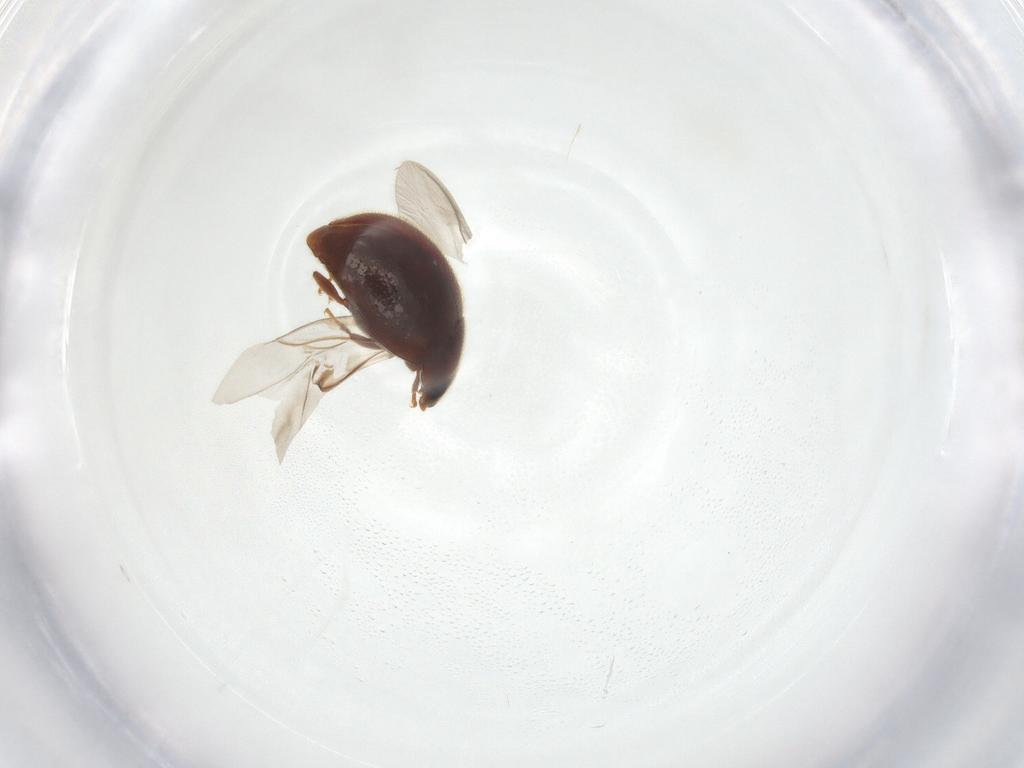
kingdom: Animalia
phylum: Arthropoda
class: Insecta
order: Coleoptera
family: Coccinellidae
